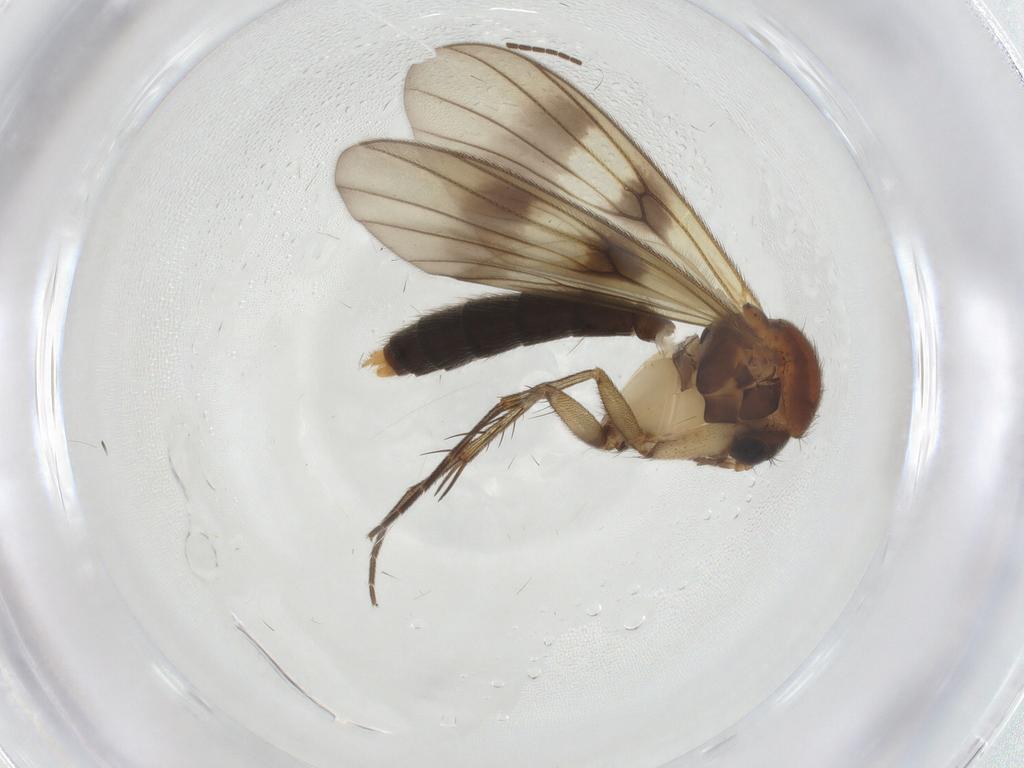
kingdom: Animalia
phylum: Arthropoda
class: Insecta
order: Diptera
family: Mycetophilidae
